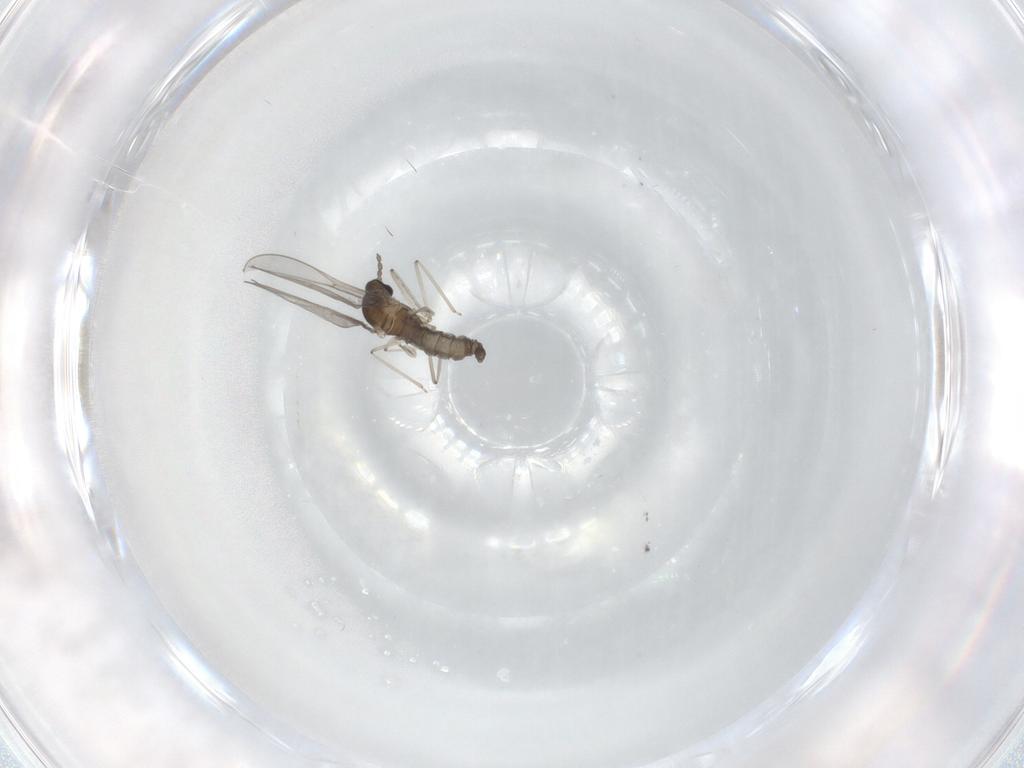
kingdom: Animalia
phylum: Arthropoda
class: Insecta
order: Diptera
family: Cecidomyiidae
